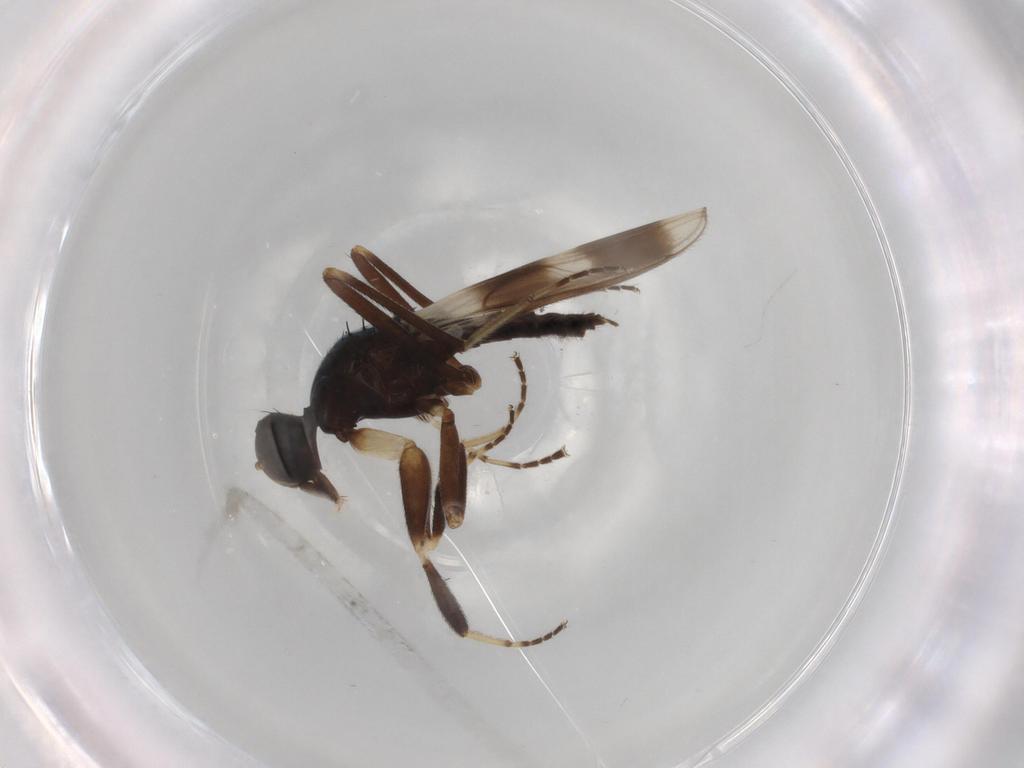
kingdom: Animalia
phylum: Arthropoda
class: Insecta
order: Diptera
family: Hybotidae
